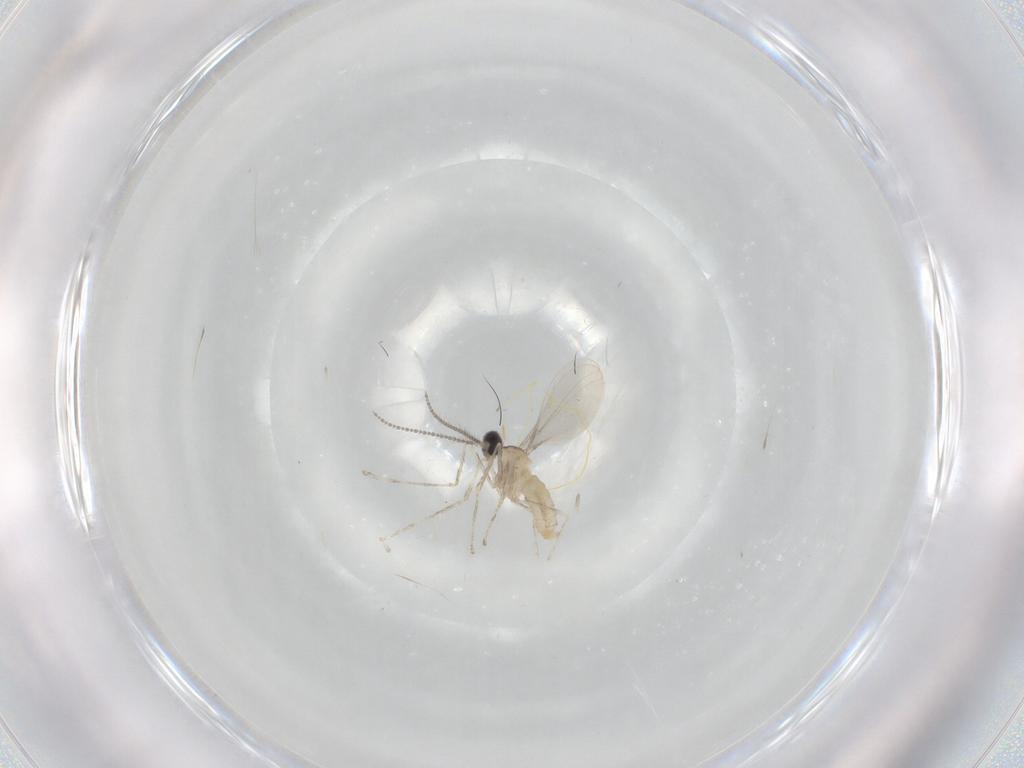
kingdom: Animalia
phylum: Arthropoda
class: Insecta
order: Diptera
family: Cecidomyiidae
